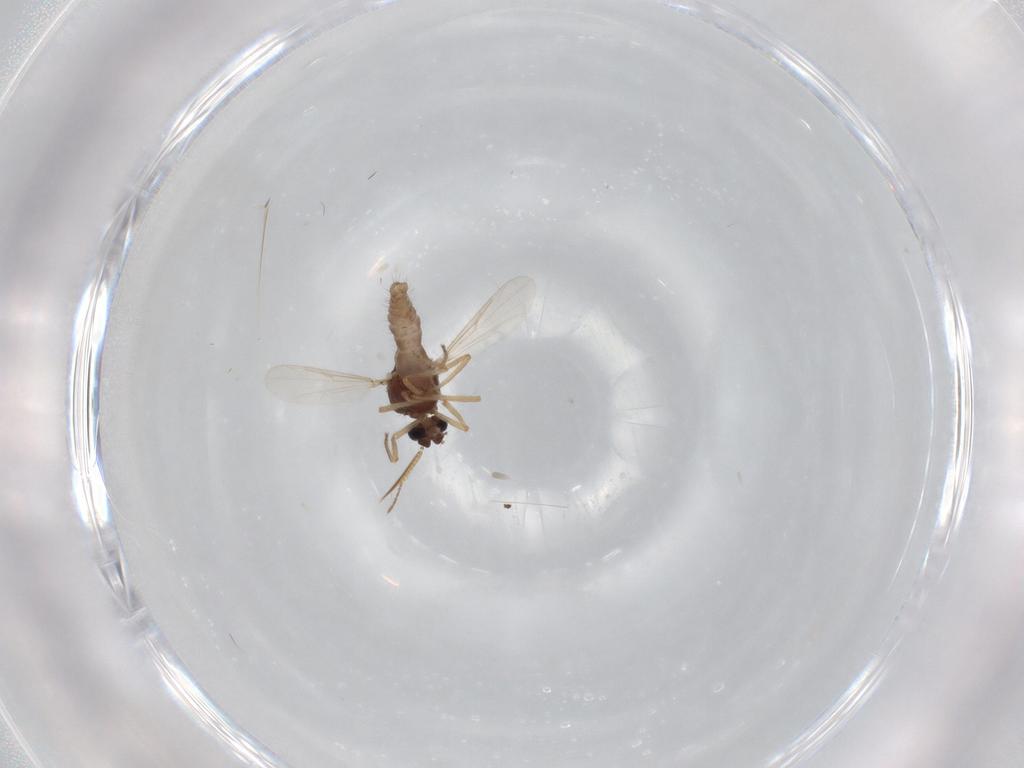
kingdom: Animalia
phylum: Arthropoda
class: Insecta
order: Diptera
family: Ceratopogonidae
